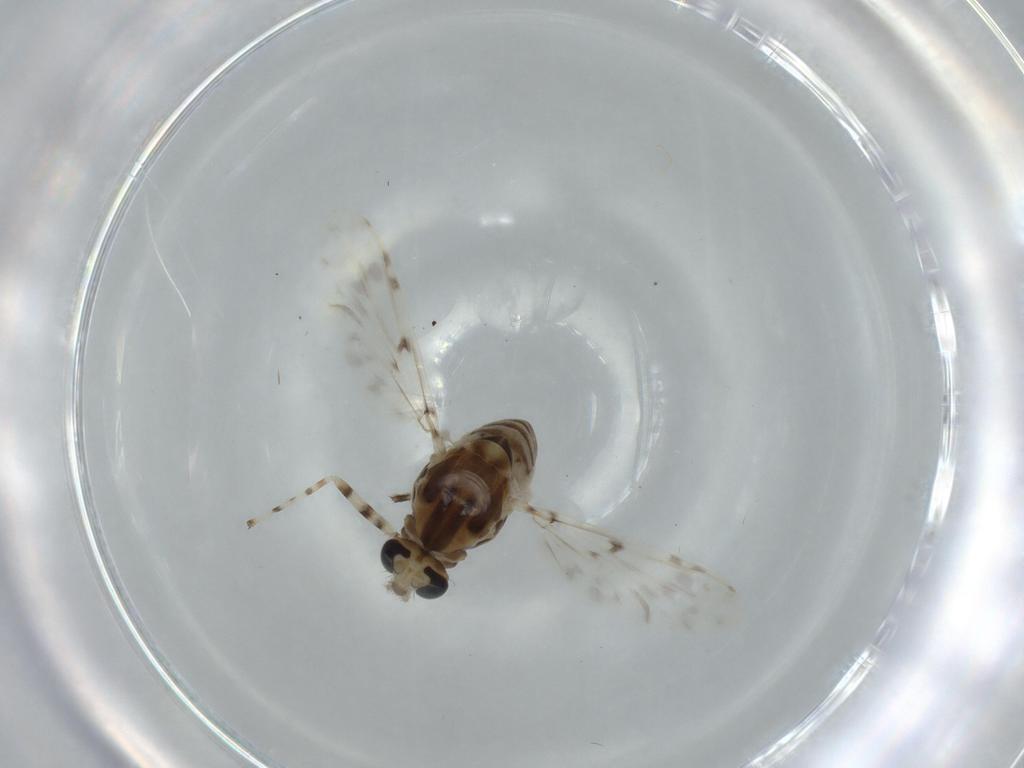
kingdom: Animalia
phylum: Arthropoda
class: Insecta
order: Diptera
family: Chironomidae
